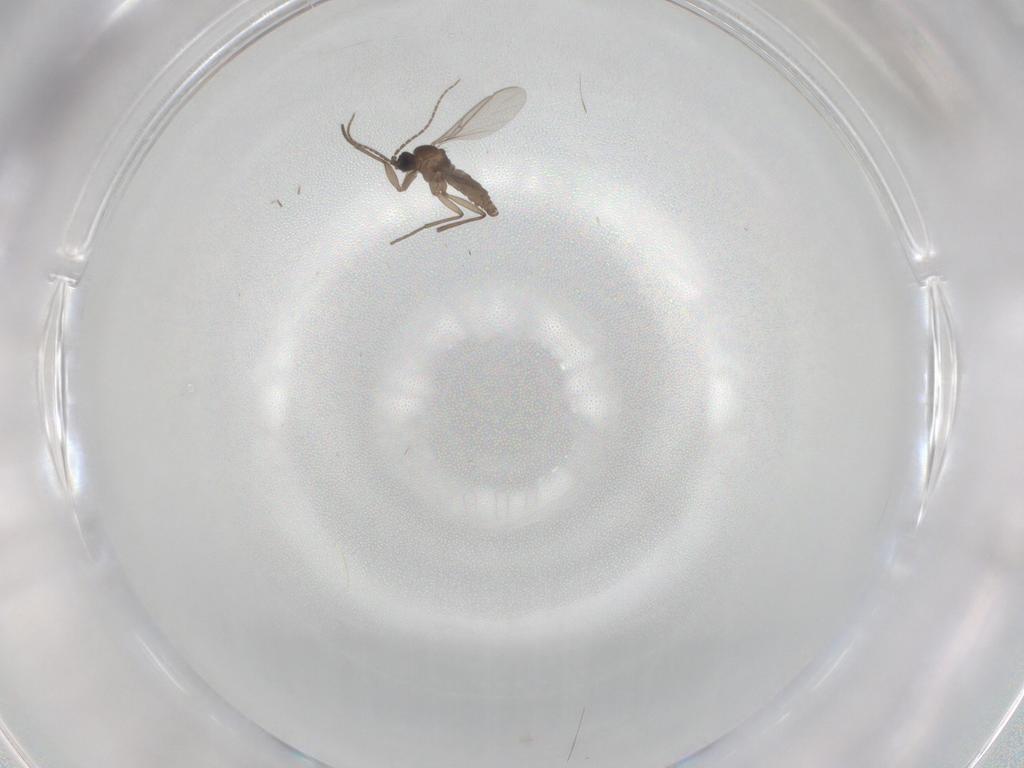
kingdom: Animalia
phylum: Arthropoda
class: Insecta
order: Diptera
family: Sciaridae
